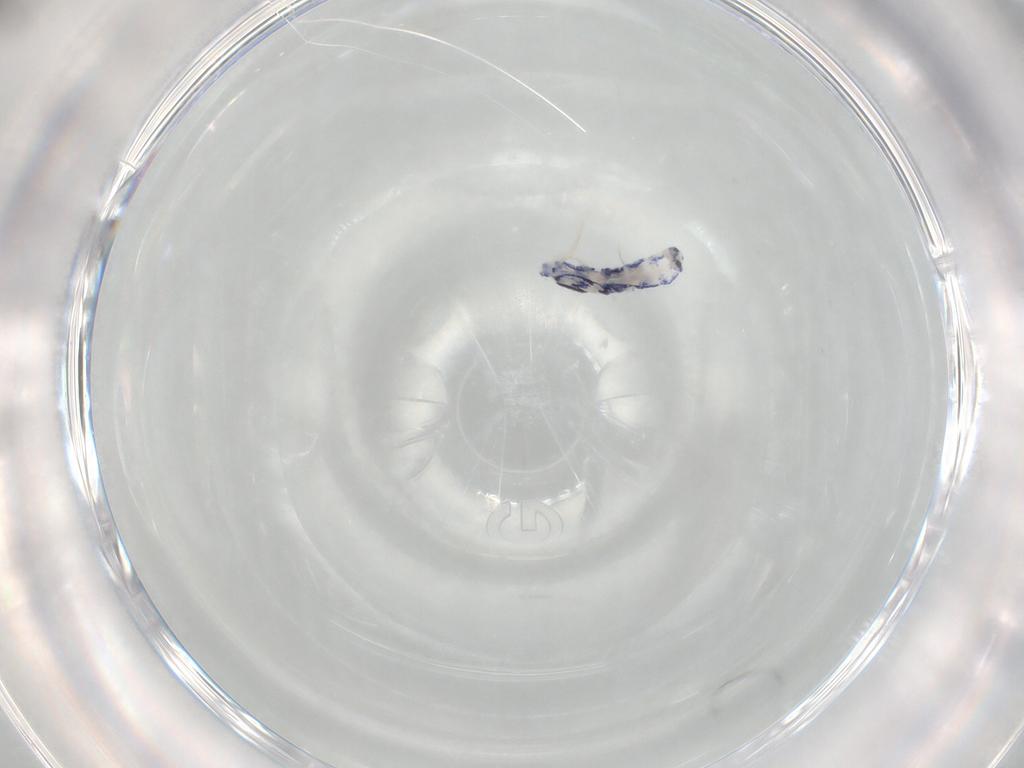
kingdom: Animalia
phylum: Arthropoda
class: Collembola
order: Entomobryomorpha
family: Entomobryidae
